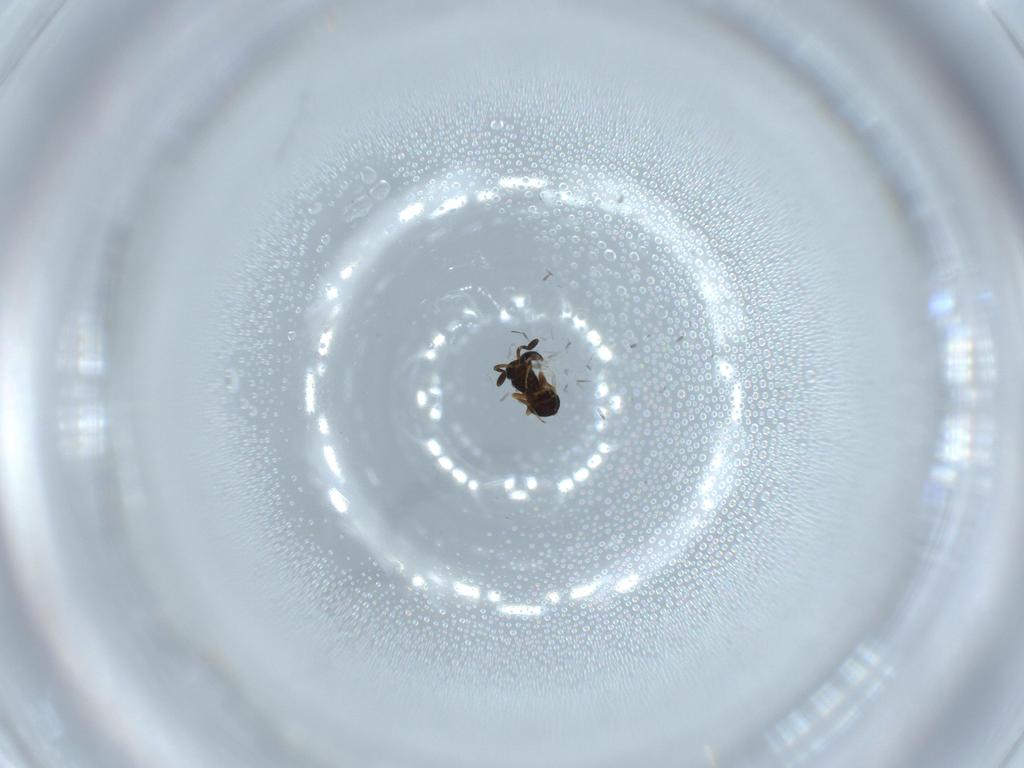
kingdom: Animalia
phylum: Arthropoda
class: Insecta
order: Hymenoptera
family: Scelionidae
